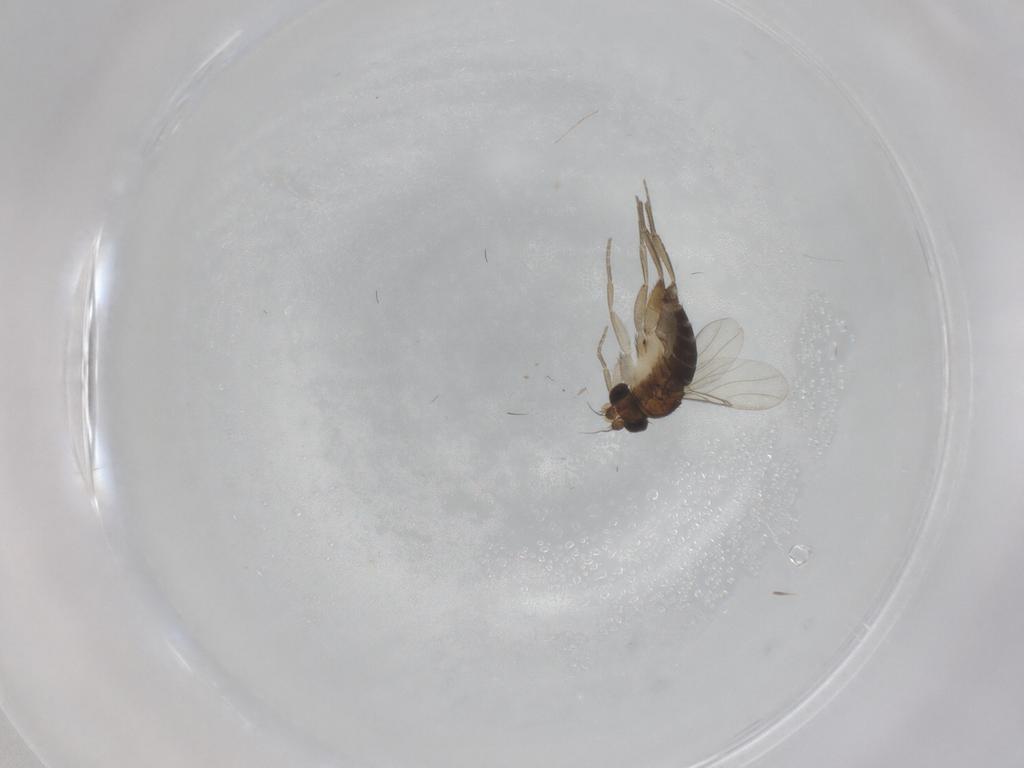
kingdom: Animalia
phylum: Arthropoda
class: Insecta
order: Diptera
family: Phoridae
